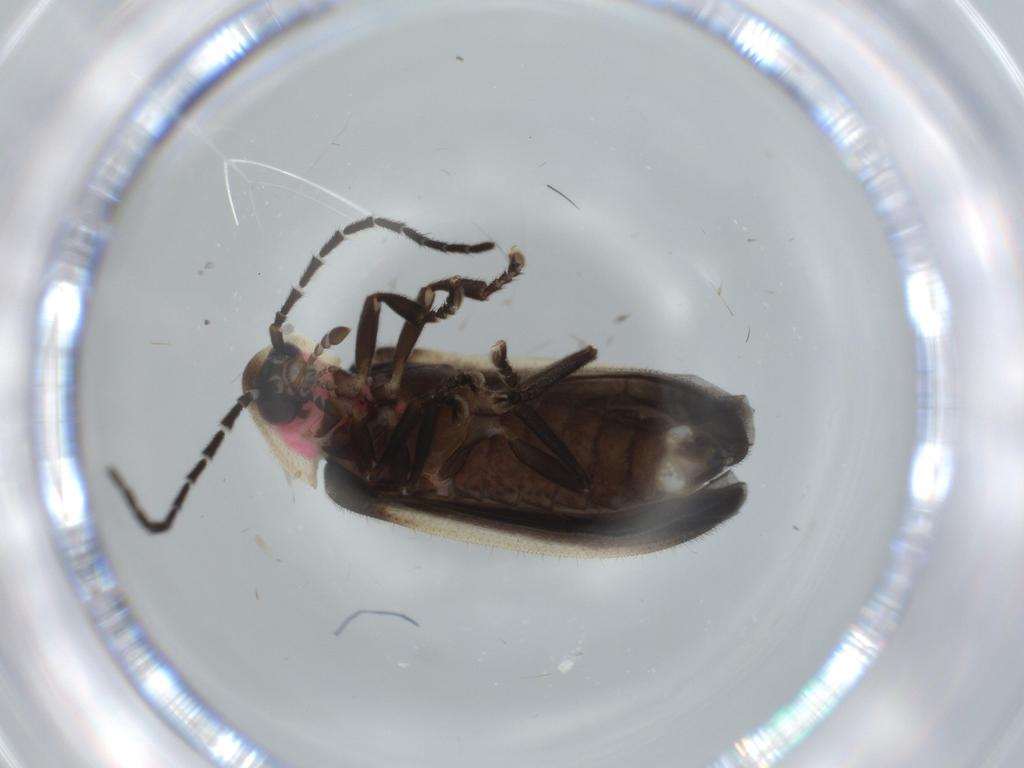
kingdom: Animalia
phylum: Arthropoda
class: Insecta
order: Coleoptera
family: Lampyridae
